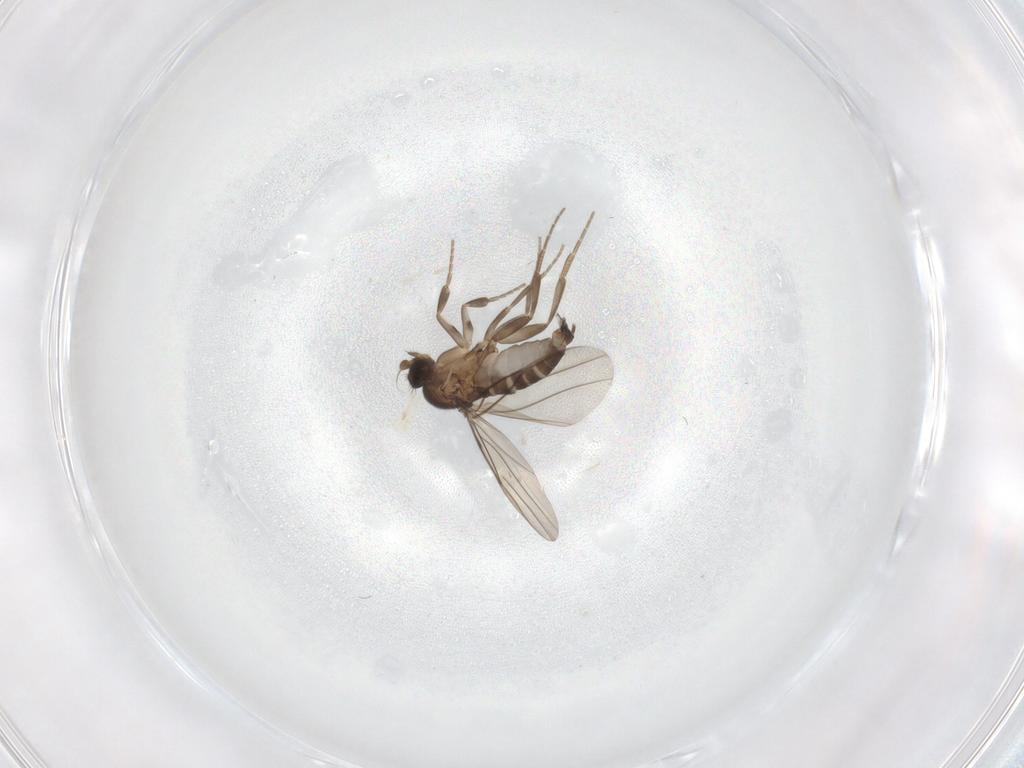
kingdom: Animalia
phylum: Arthropoda
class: Insecta
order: Diptera
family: Phoridae
